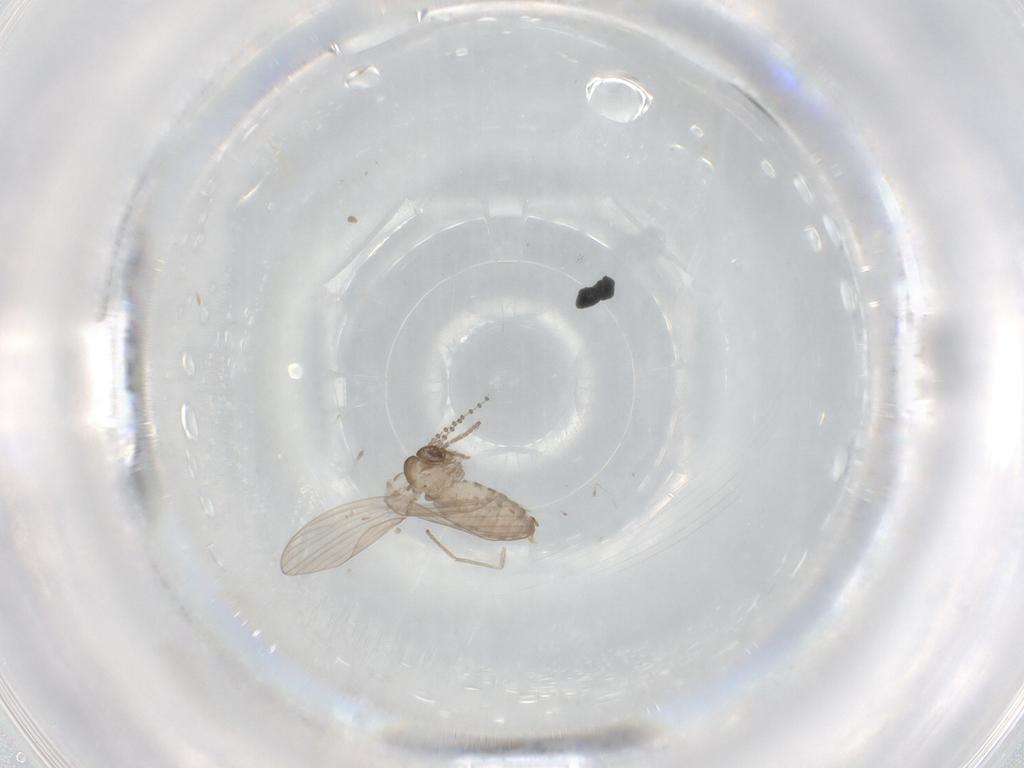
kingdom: Animalia
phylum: Arthropoda
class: Insecta
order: Diptera
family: Psychodidae
